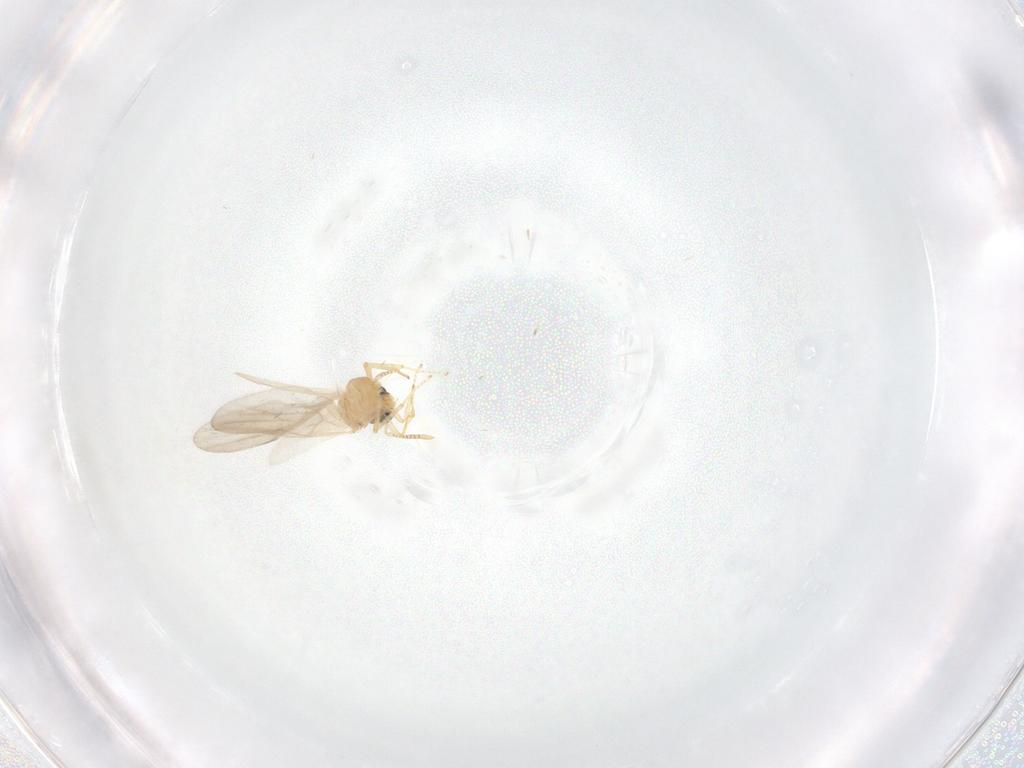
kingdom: Animalia
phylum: Arthropoda
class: Insecta
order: Hymenoptera
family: Formicidae
